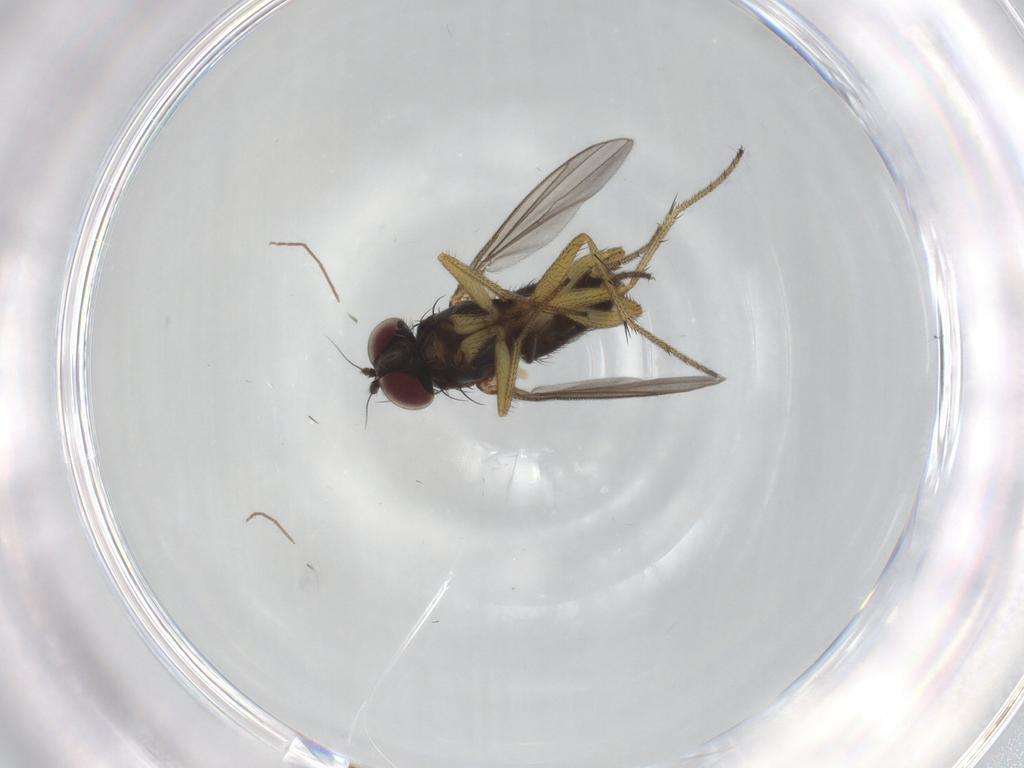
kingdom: Animalia
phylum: Arthropoda
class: Insecta
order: Diptera
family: Dolichopodidae
